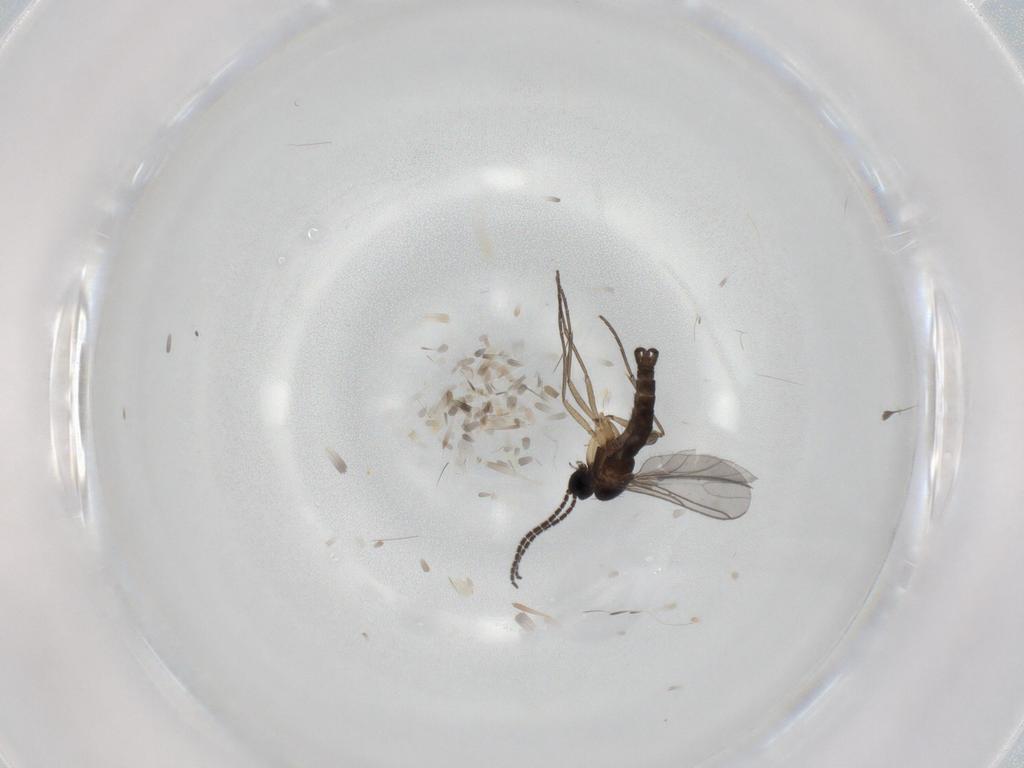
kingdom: Animalia
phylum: Arthropoda
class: Insecta
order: Diptera
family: Sciaridae
